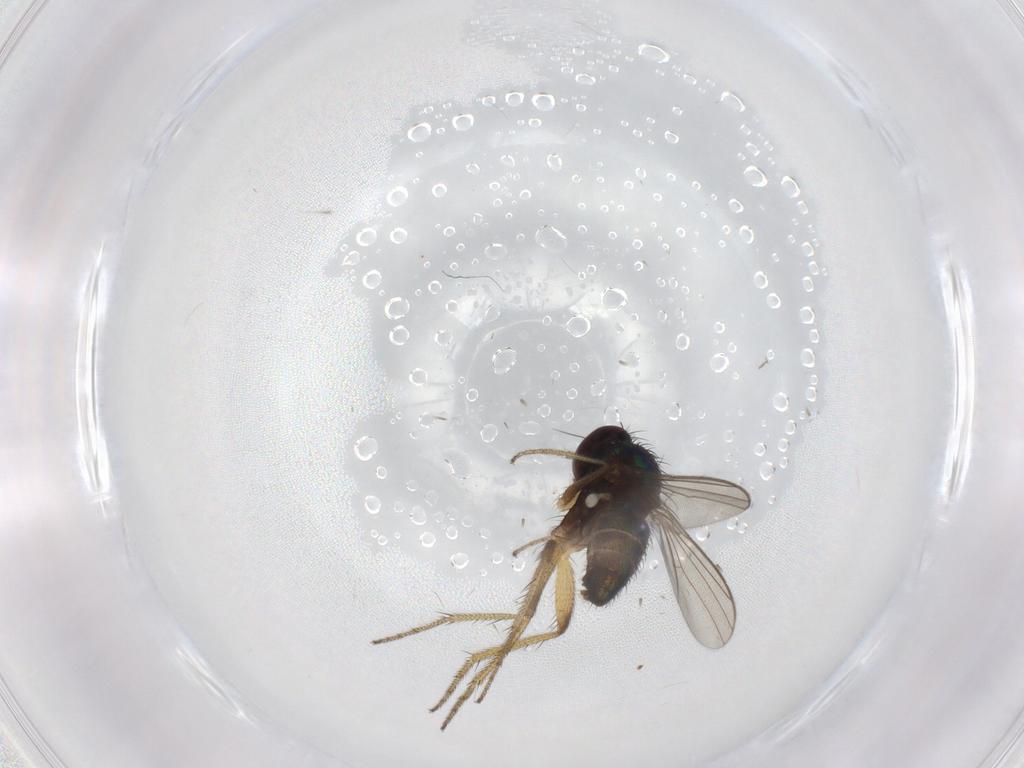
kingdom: Animalia
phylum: Arthropoda
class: Insecta
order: Diptera
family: Chironomidae
